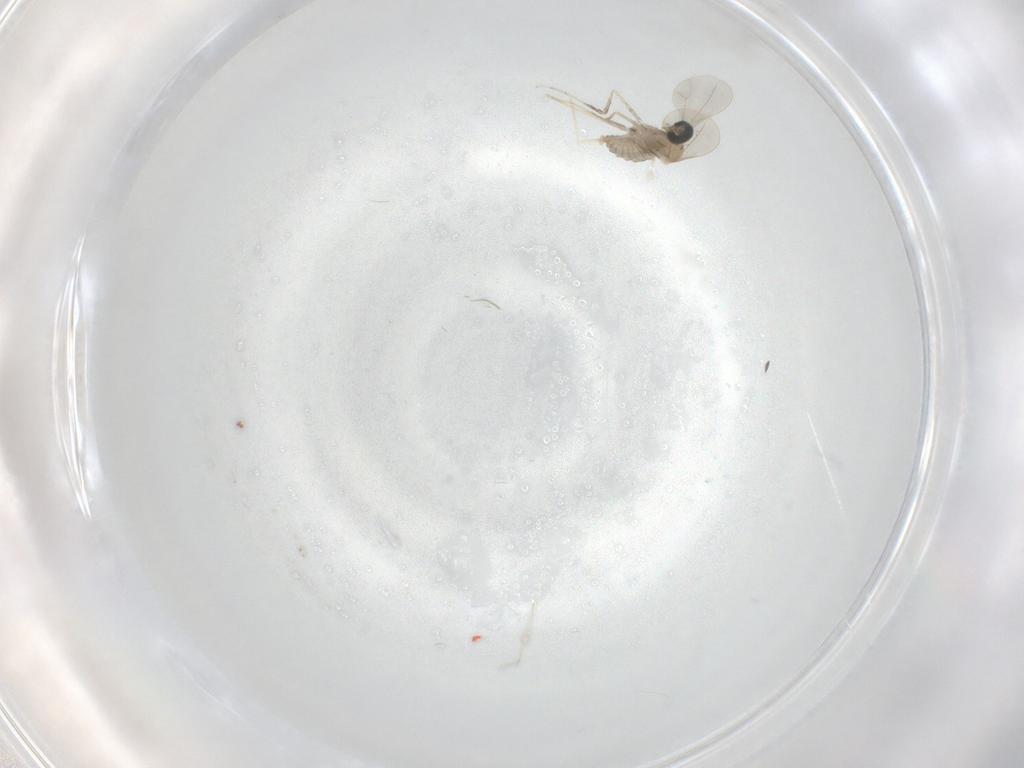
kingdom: Animalia
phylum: Arthropoda
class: Insecta
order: Diptera
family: Cecidomyiidae
